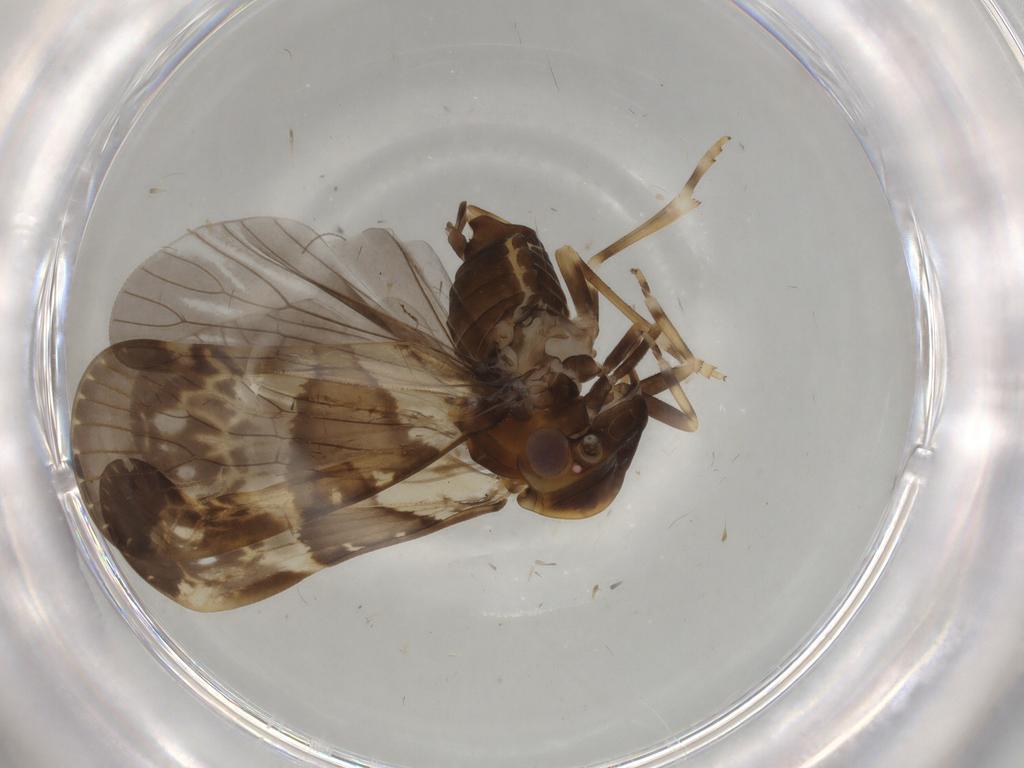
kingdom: Animalia
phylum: Arthropoda
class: Insecta
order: Hemiptera
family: Cixiidae
